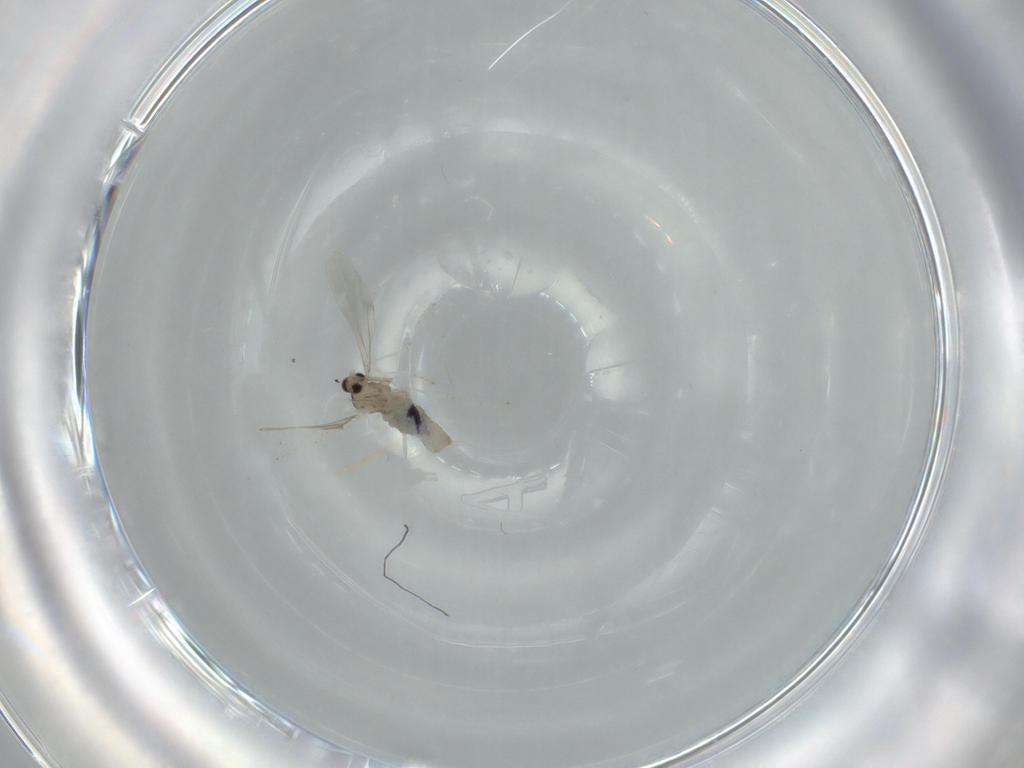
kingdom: Animalia
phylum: Arthropoda
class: Insecta
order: Diptera
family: Cecidomyiidae
